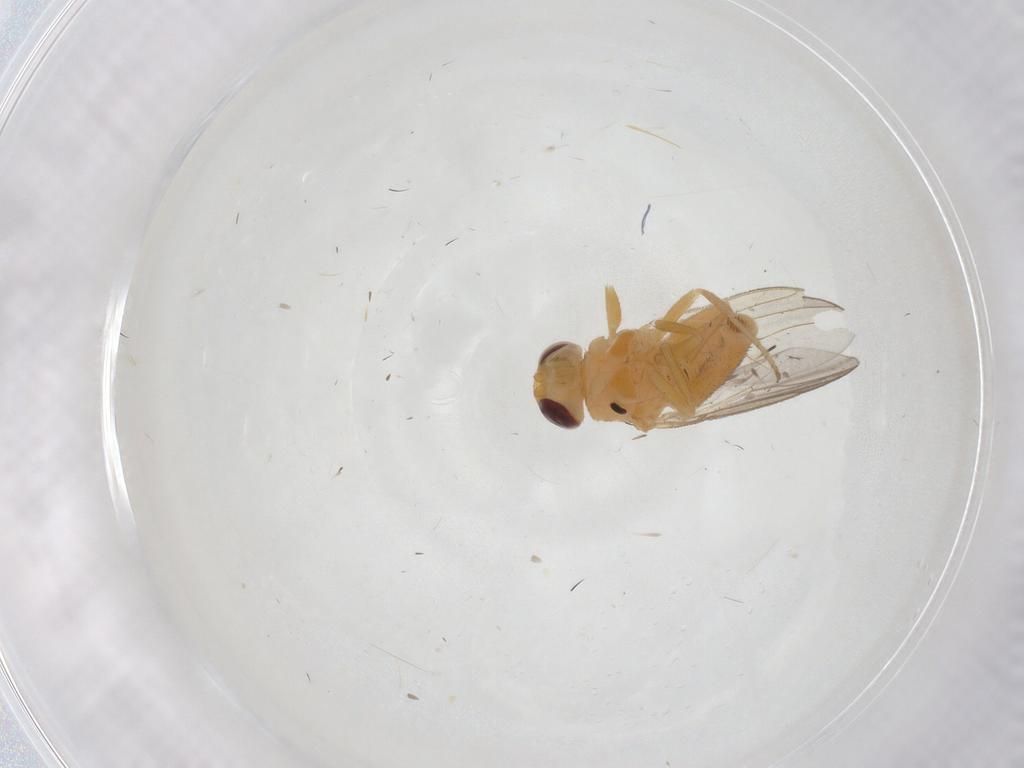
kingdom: Animalia
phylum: Arthropoda
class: Insecta
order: Diptera
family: Chloropidae
